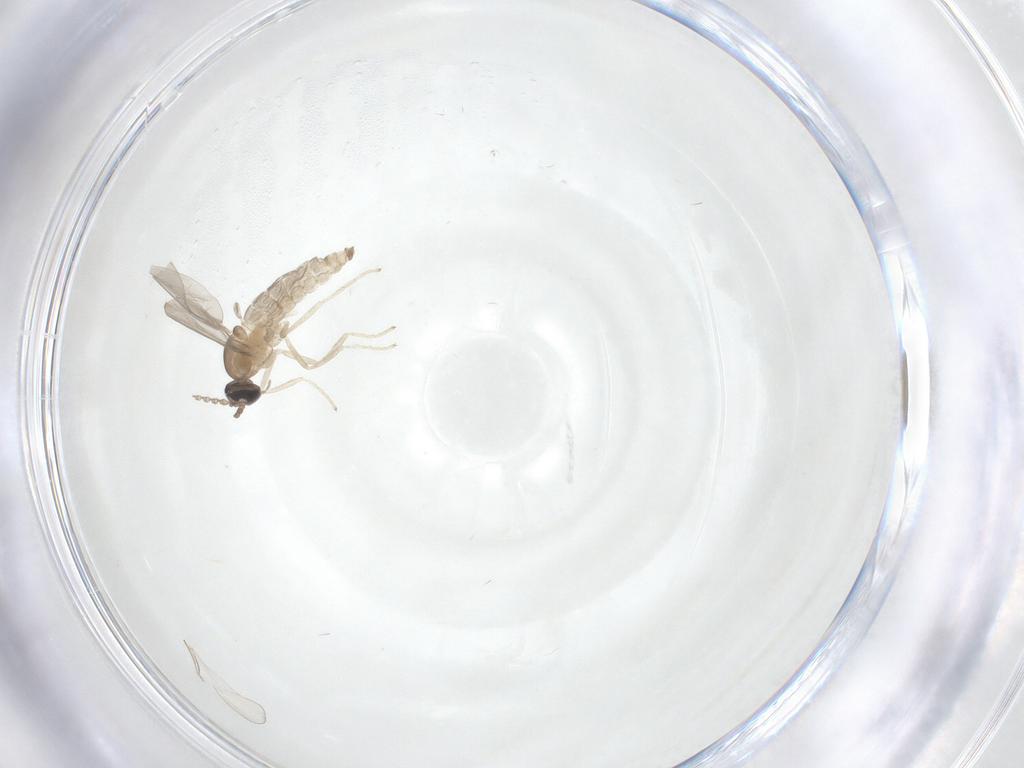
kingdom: Animalia
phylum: Arthropoda
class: Insecta
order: Diptera
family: Cecidomyiidae
